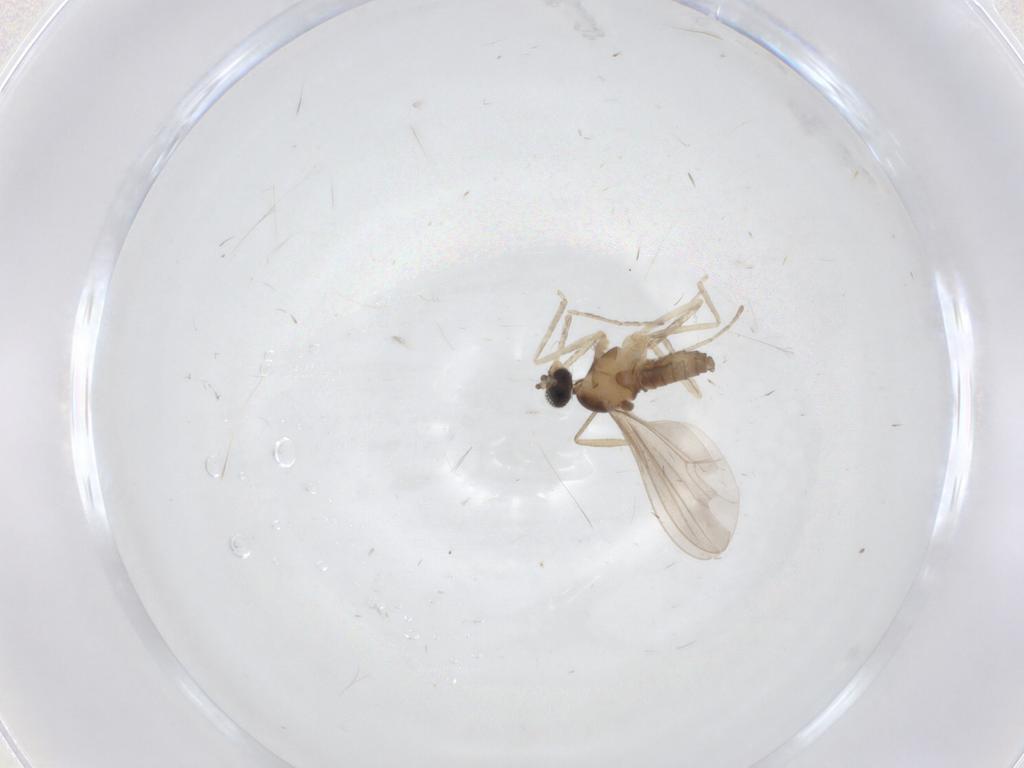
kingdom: Animalia
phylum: Arthropoda
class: Insecta
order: Diptera
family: Cecidomyiidae
